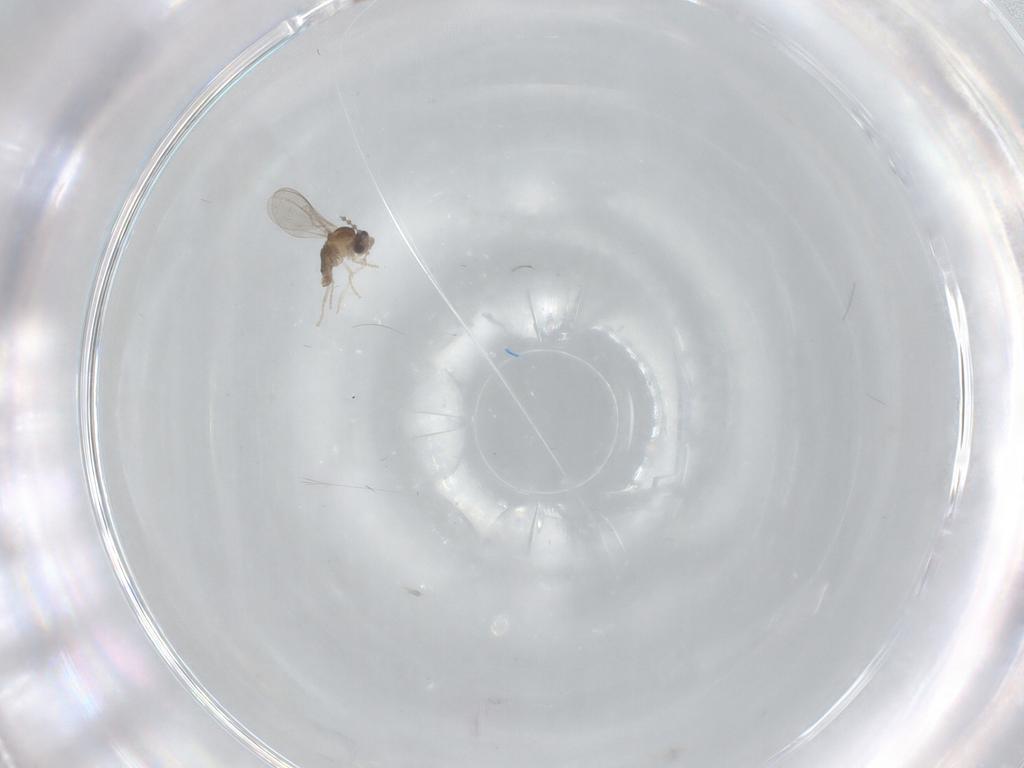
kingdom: Animalia
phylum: Arthropoda
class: Insecta
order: Diptera
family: Cecidomyiidae
